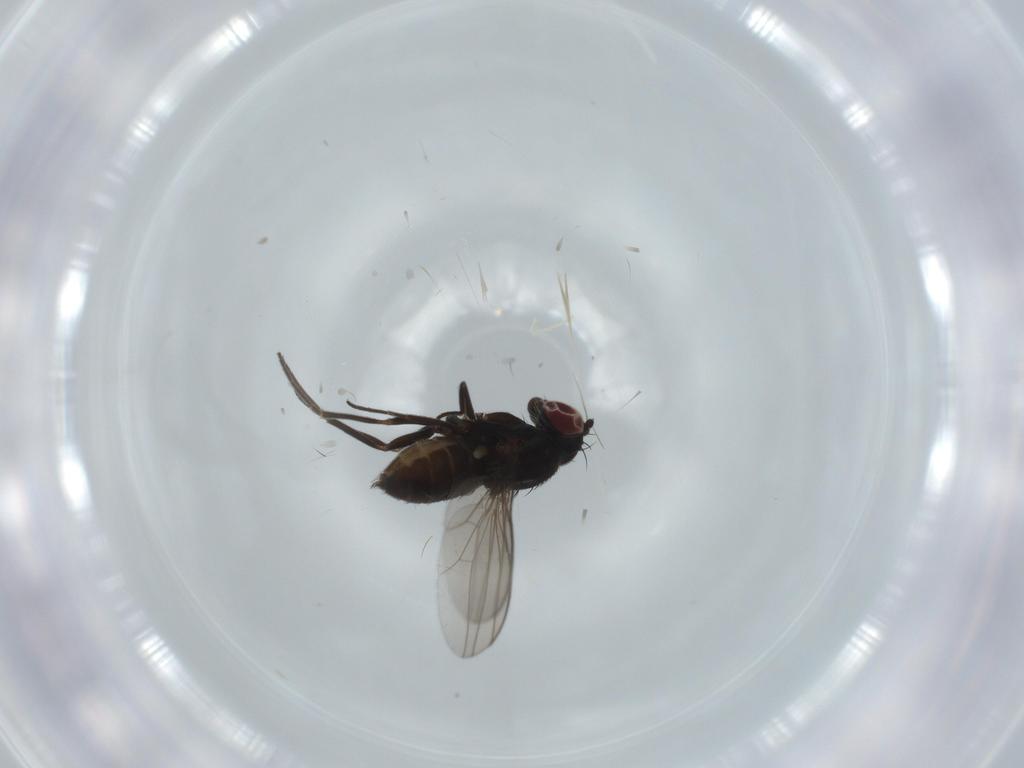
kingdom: Animalia
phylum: Arthropoda
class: Insecta
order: Diptera
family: Dolichopodidae
